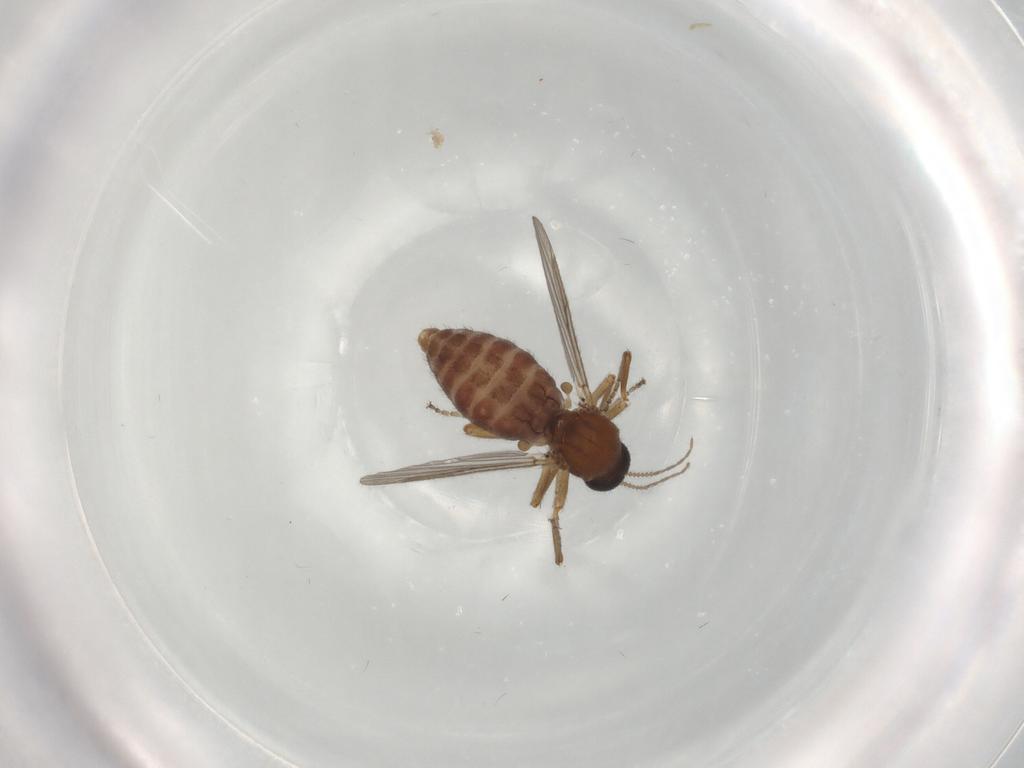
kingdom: Animalia
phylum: Arthropoda
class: Insecta
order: Diptera
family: Ceratopogonidae
